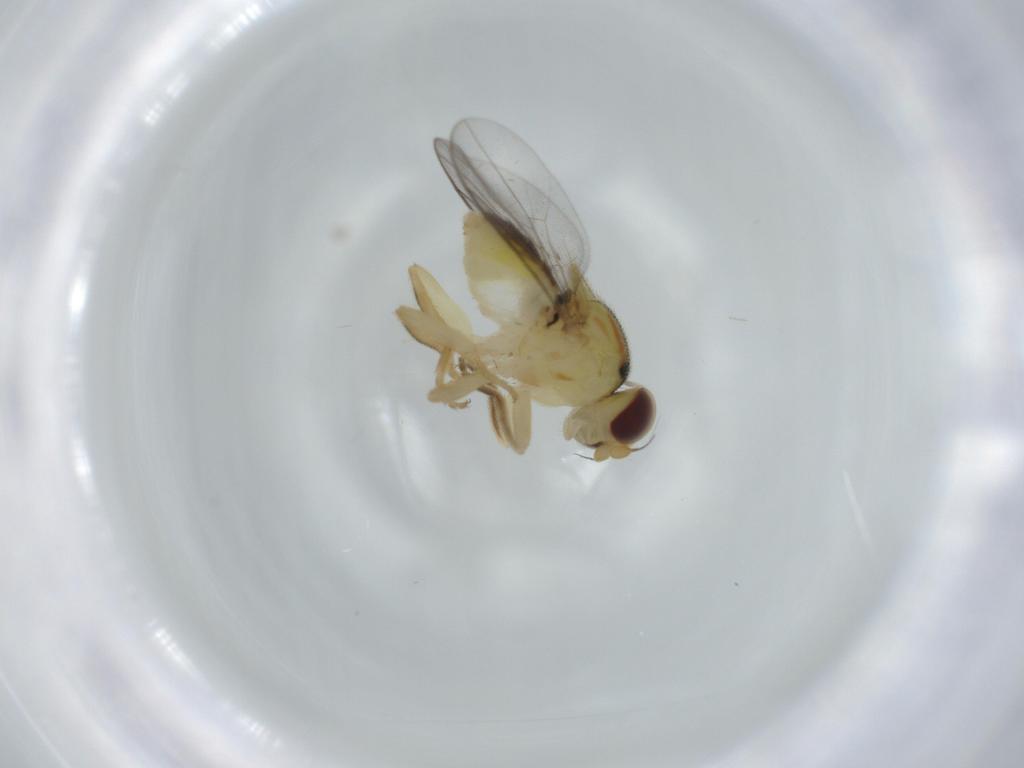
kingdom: Animalia
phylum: Arthropoda
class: Insecta
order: Diptera
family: Chloropidae
